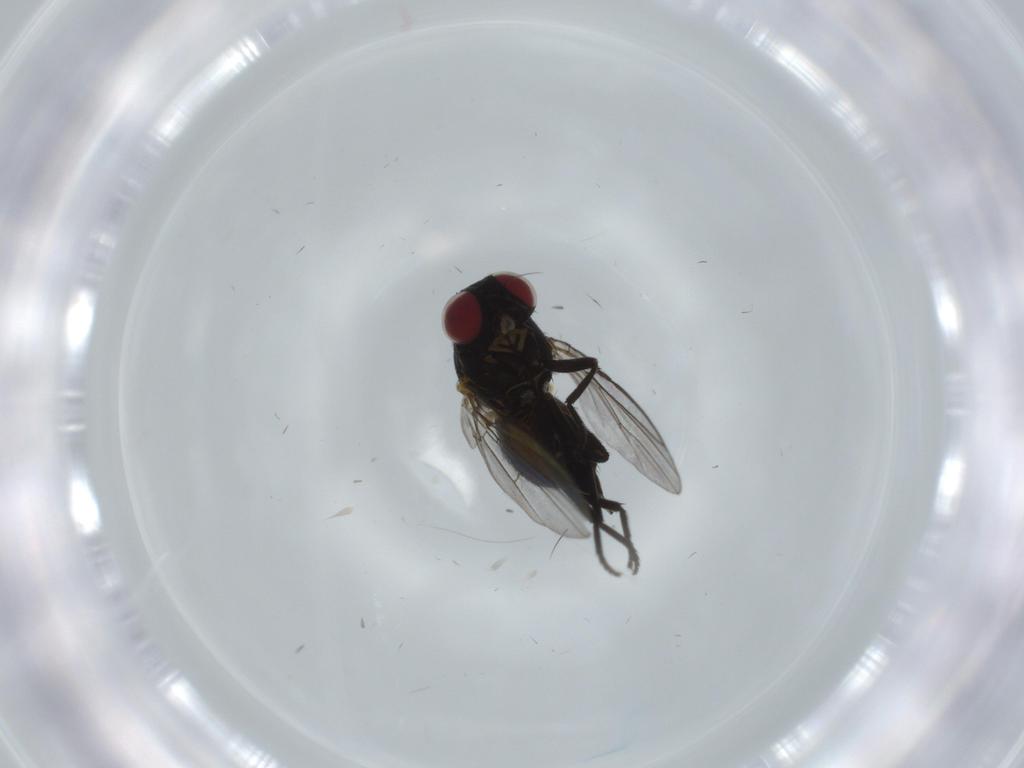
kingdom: Animalia
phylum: Arthropoda
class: Insecta
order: Diptera
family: Agromyzidae
